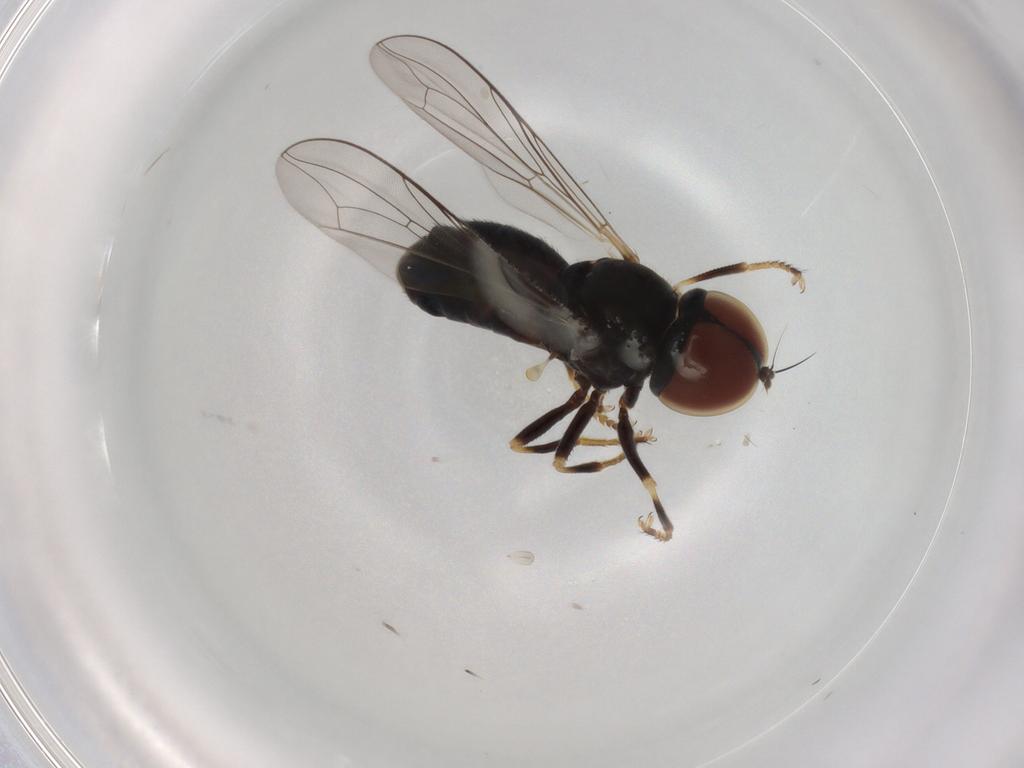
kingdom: Animalia
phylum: Arthropoda
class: Insecta
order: Diptera
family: Pipunculidae
